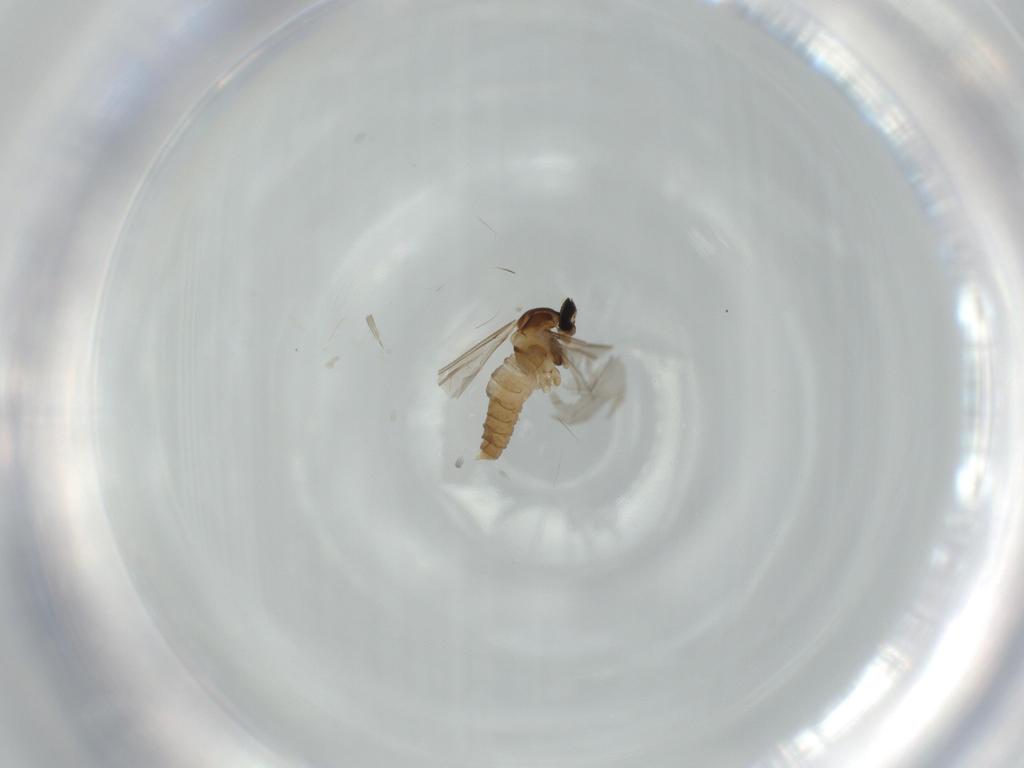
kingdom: Animalia
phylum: Arthropoda
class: Insecta
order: Diptera
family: Cecidomyiidae
